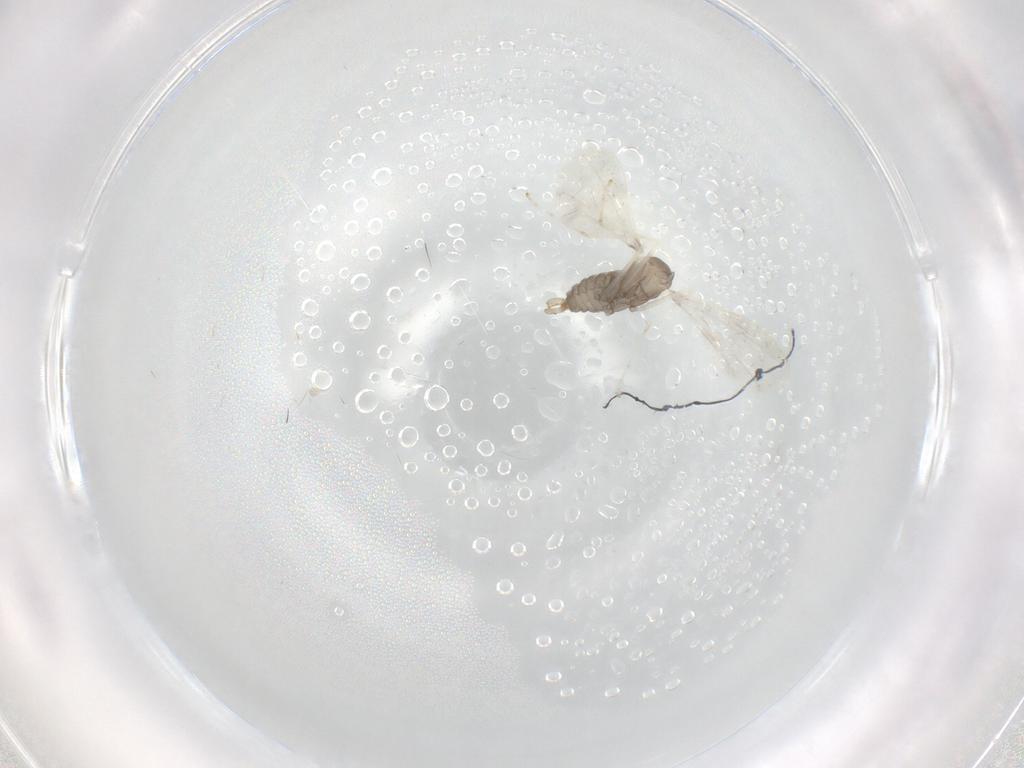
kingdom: Animalia
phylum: Arthropoda
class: Insecta
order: Diptera
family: Cecidomyiidae
